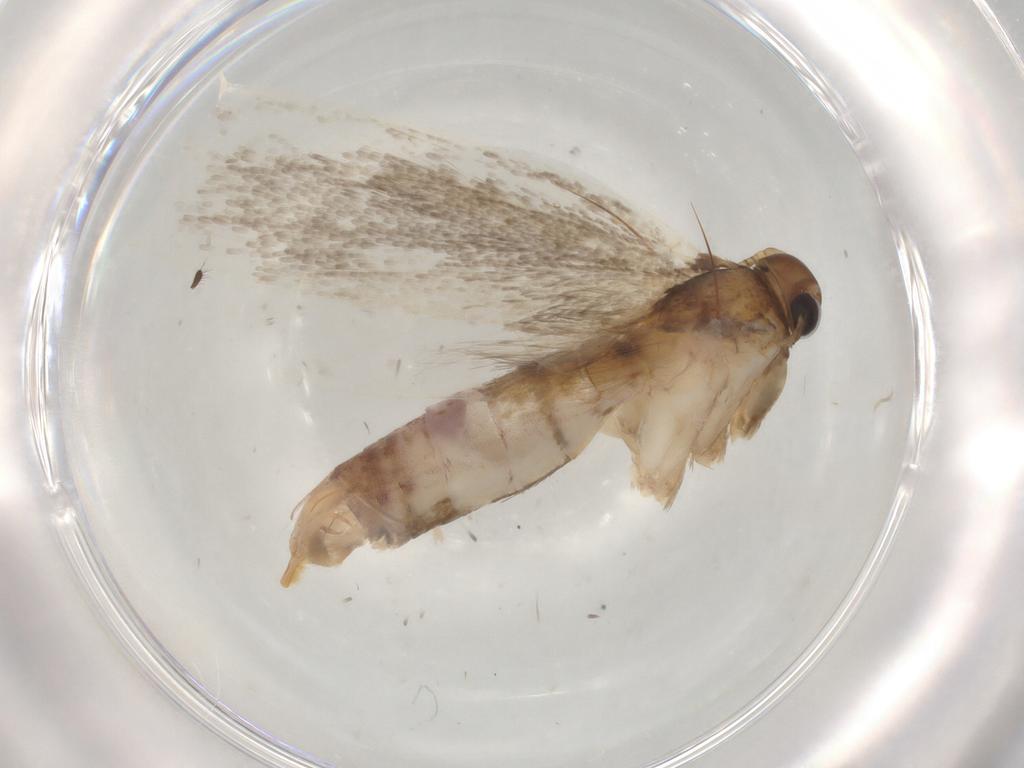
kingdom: Animalia
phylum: Arthropoda
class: Insecta
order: Lepidoptera
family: Gelechiidae
